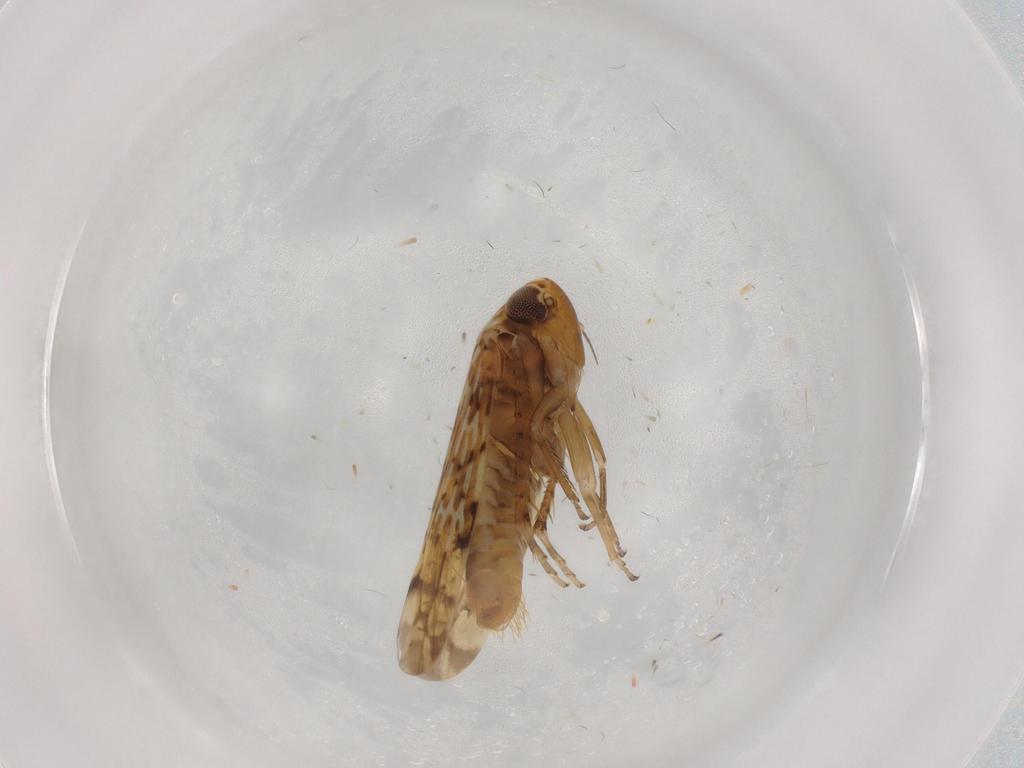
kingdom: Animalia
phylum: Arthropoda
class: Insecta
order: Hemiptera
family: Cicadellidae
